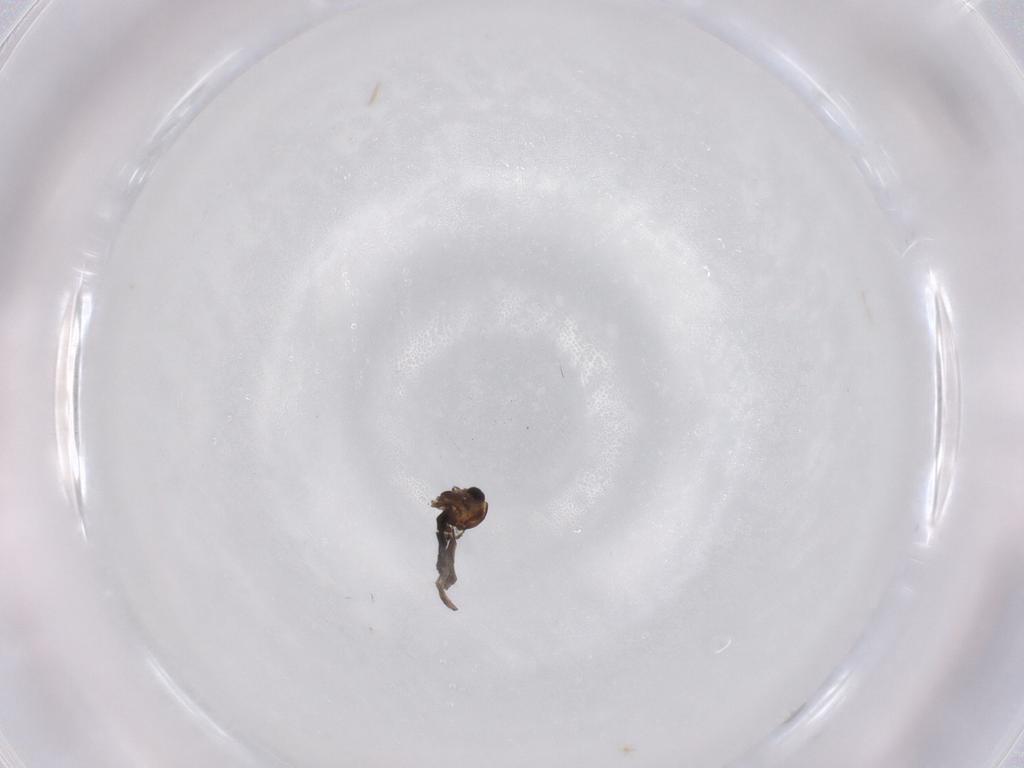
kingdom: Animalia
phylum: Arthropoda
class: Insecta
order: Diptera
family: Chironomidae
